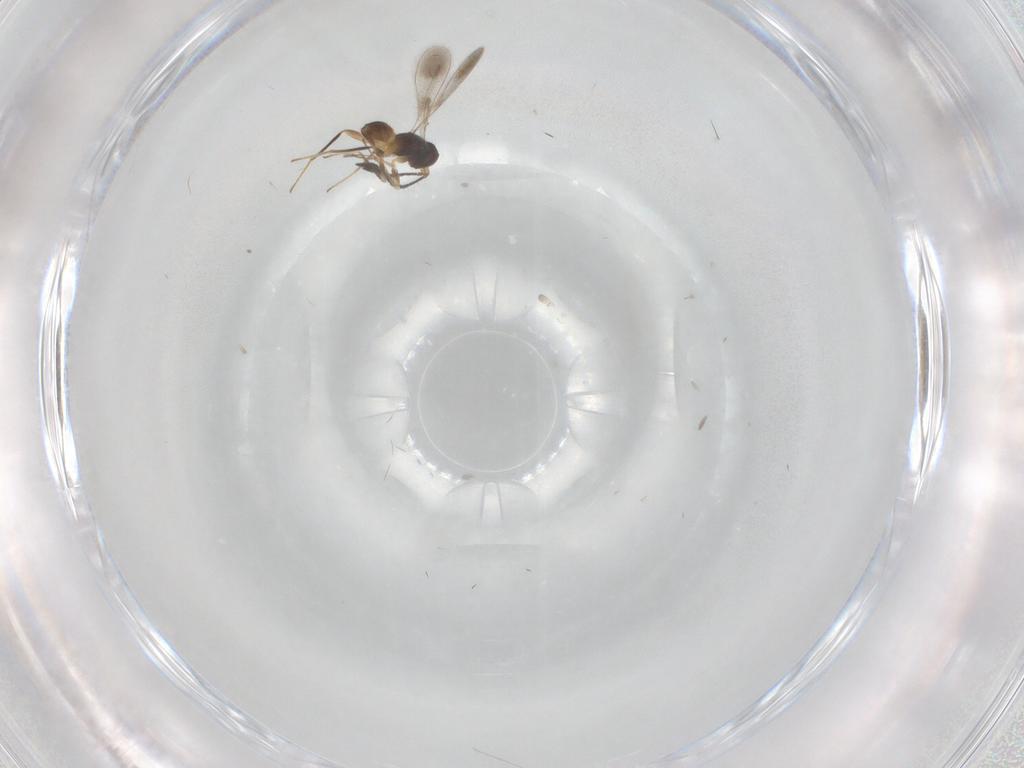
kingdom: Animalia
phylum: Arthropoda
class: Insecta
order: Hymenoptera
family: Mymaridae
